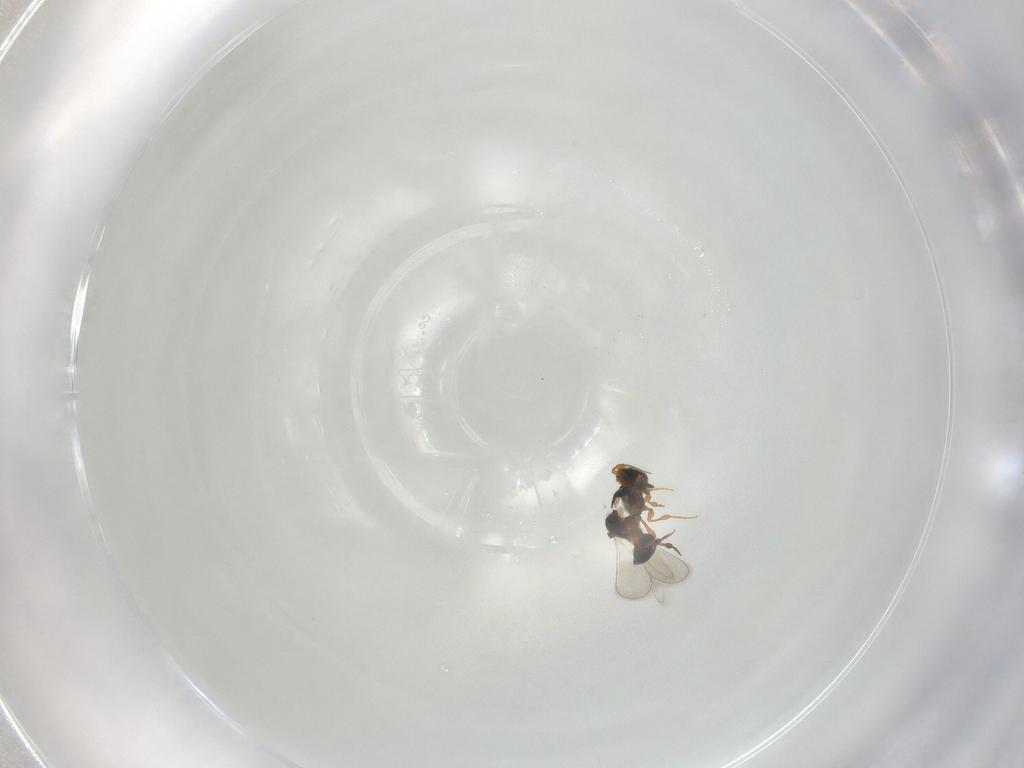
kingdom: Animalia
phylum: Arthropoda
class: Insecta
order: Hymenoptera
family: Platygastridae
